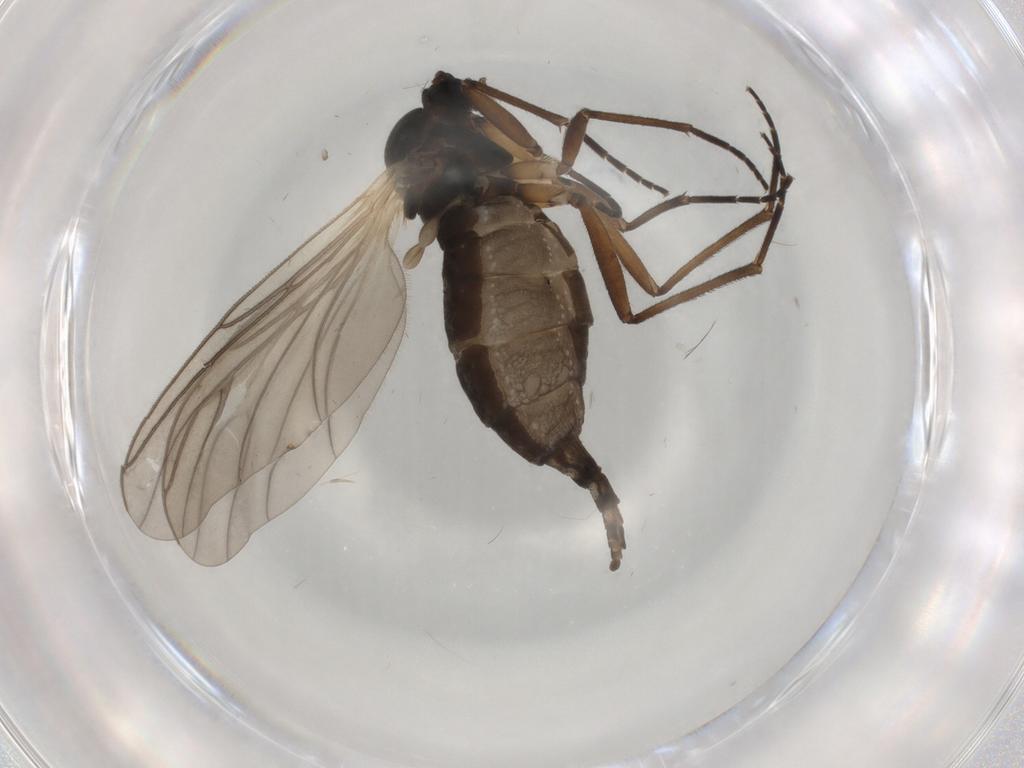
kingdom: Animalia
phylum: Arthropoda
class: Insecta
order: Diptera
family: Sciaridae
